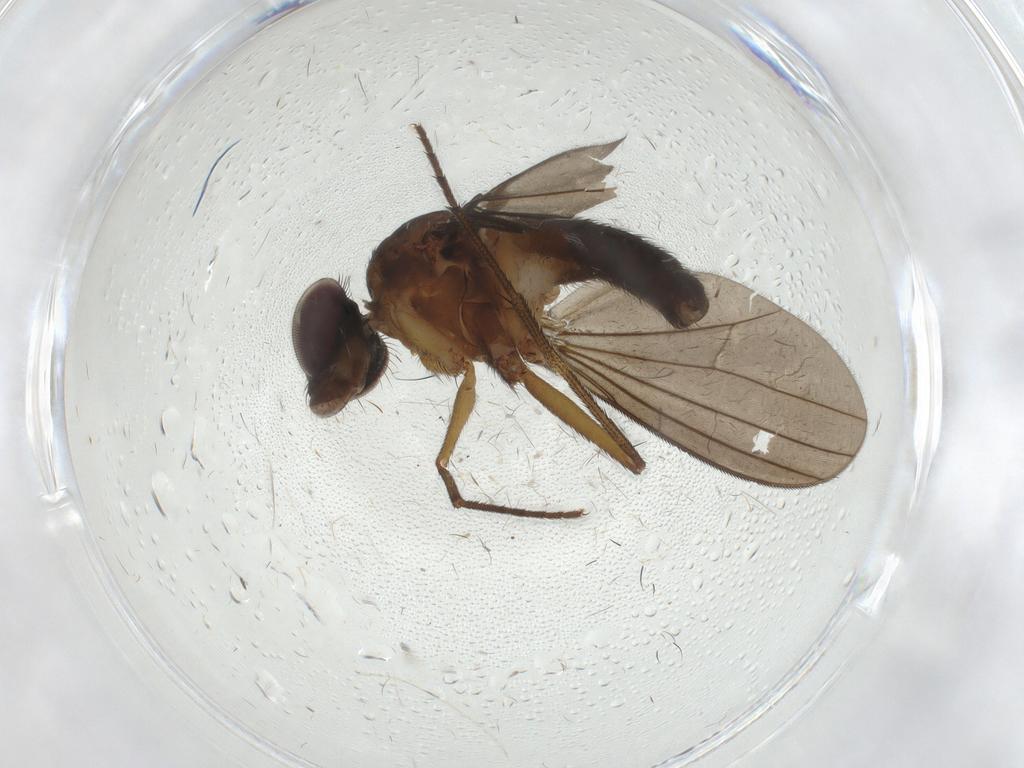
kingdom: Animalia
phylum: Arthropoda
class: Insecta
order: Diptera
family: Dolichopodidae
